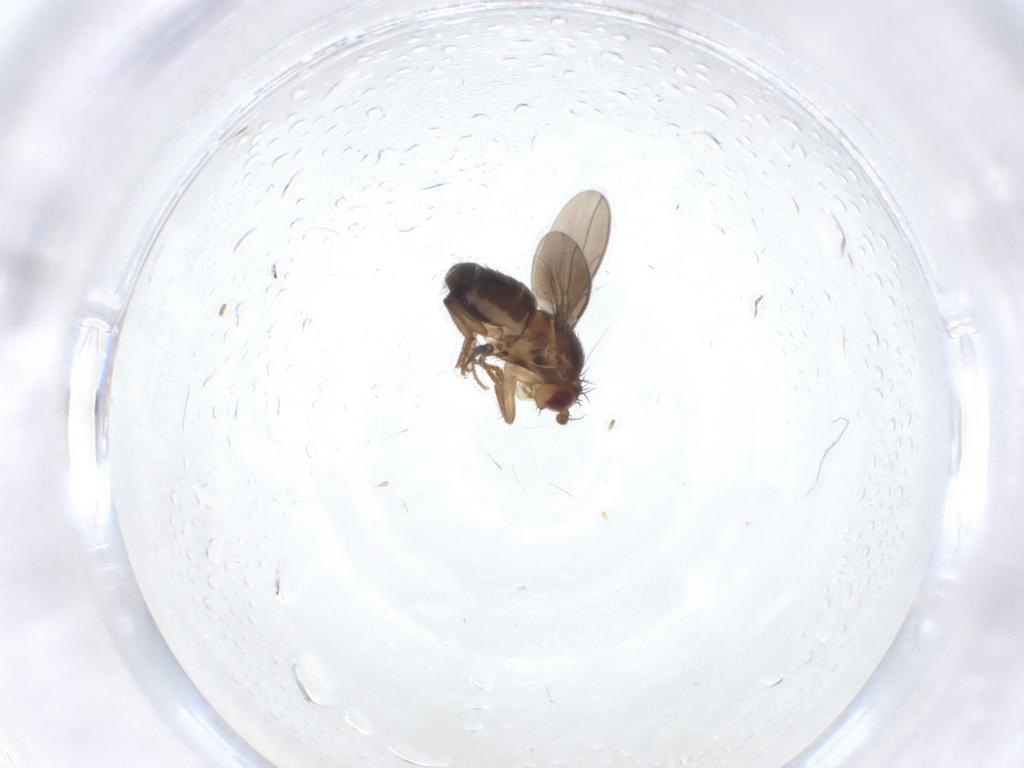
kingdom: Animalia
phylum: Arthropoda
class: Insecta
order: Diptera
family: Sphaeroceridae
